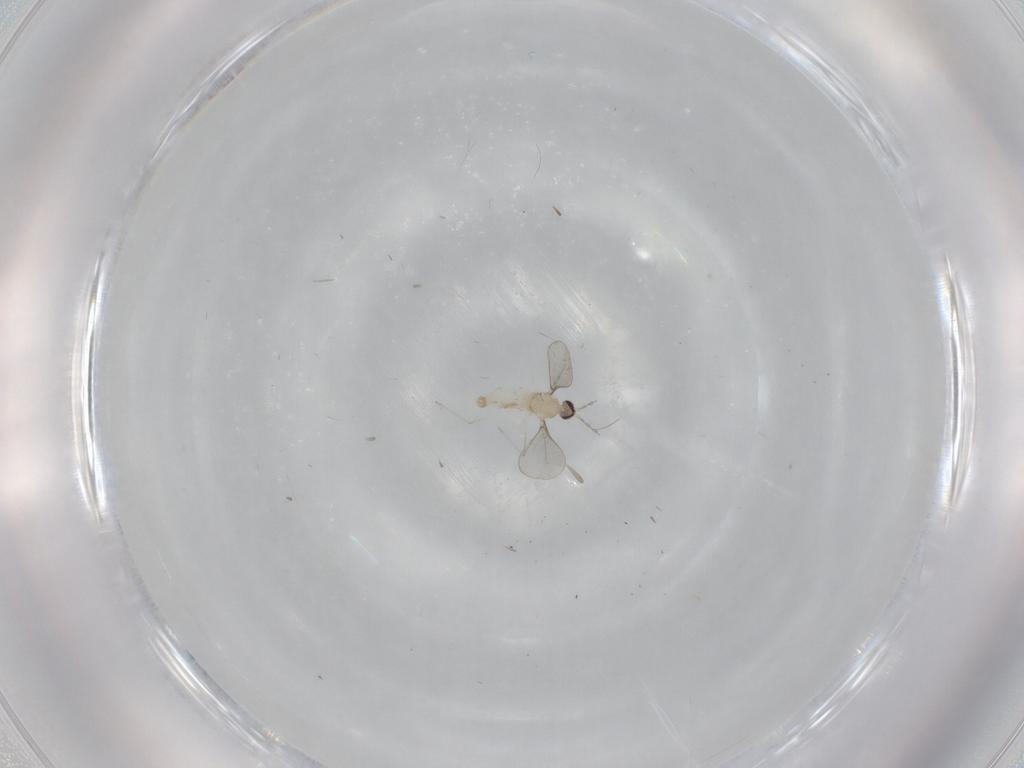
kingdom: Animalia
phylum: Arthropoda
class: Insecta
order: Diptera
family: Cecidomyiidae
